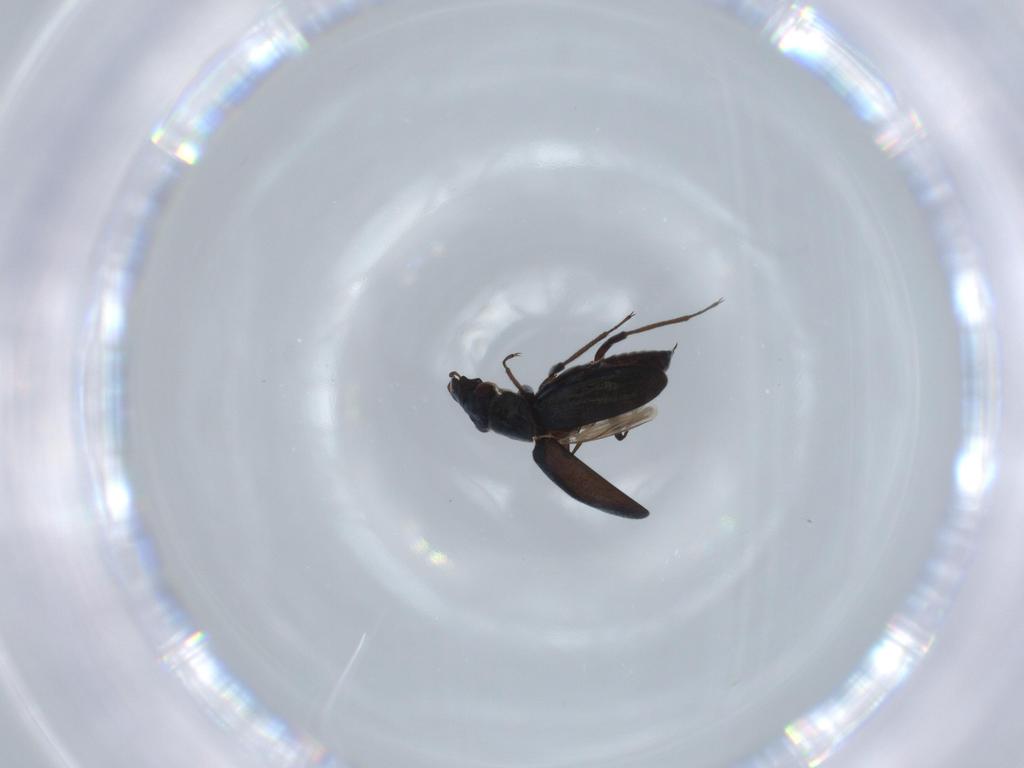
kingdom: Animalia
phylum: Arthropoda
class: Insecta
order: Coleoptera
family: Hydraenidae
